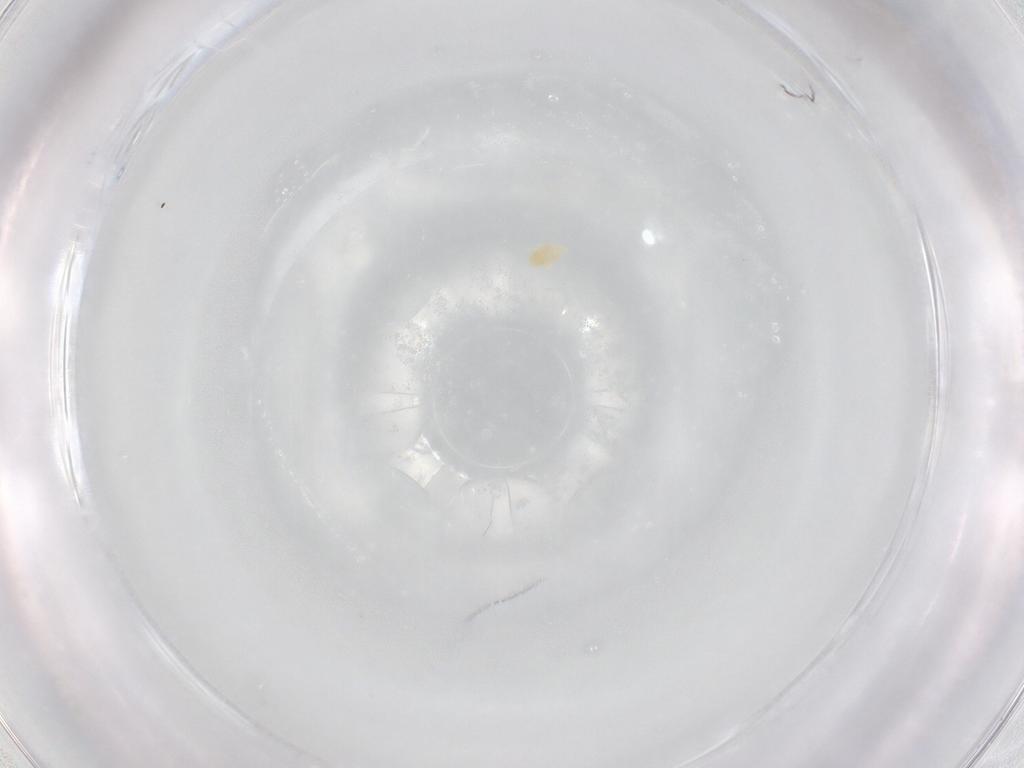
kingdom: Animalia
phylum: Arthropoda
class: Arachnida
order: Trombidiformes
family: Eupodidae
